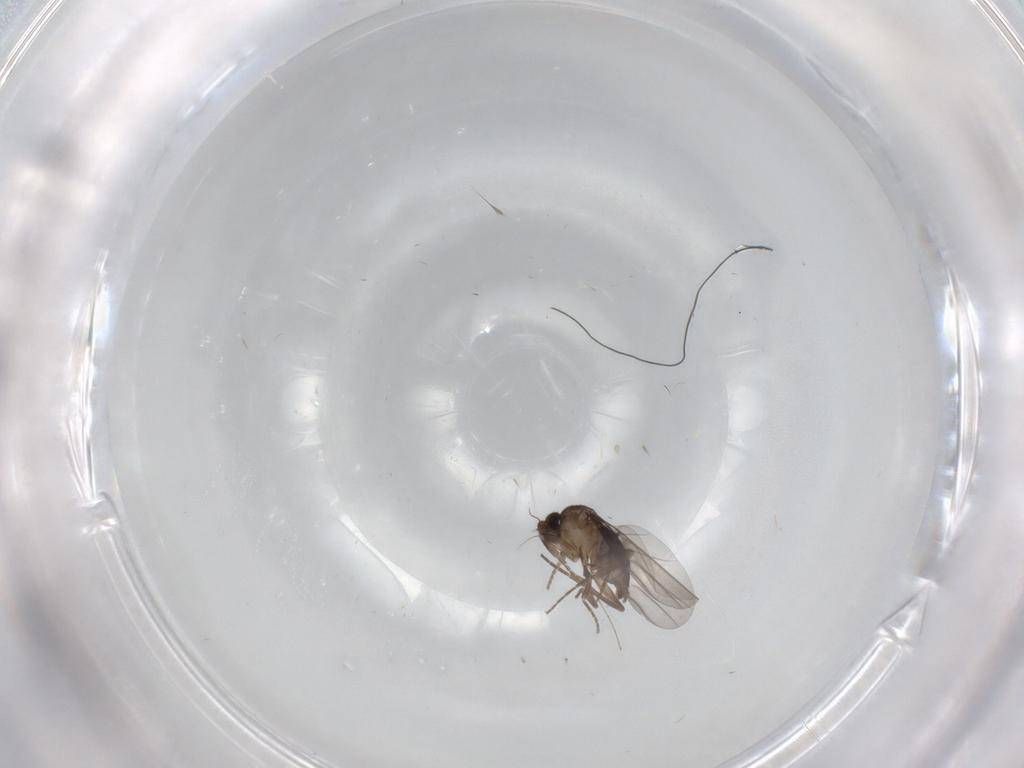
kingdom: Animalia
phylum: Arthropoda
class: Insecta
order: Diptera
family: Chironomidae
